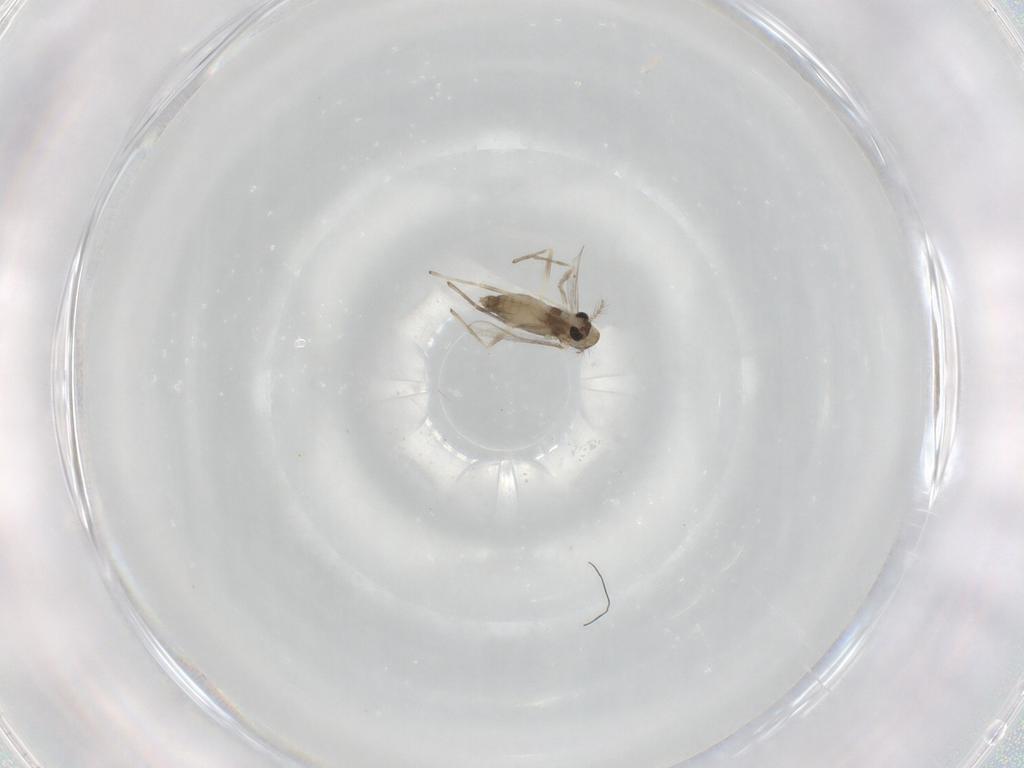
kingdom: Animalia
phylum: Arthropoda
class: Insecta
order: Diptera
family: Chironomidae
